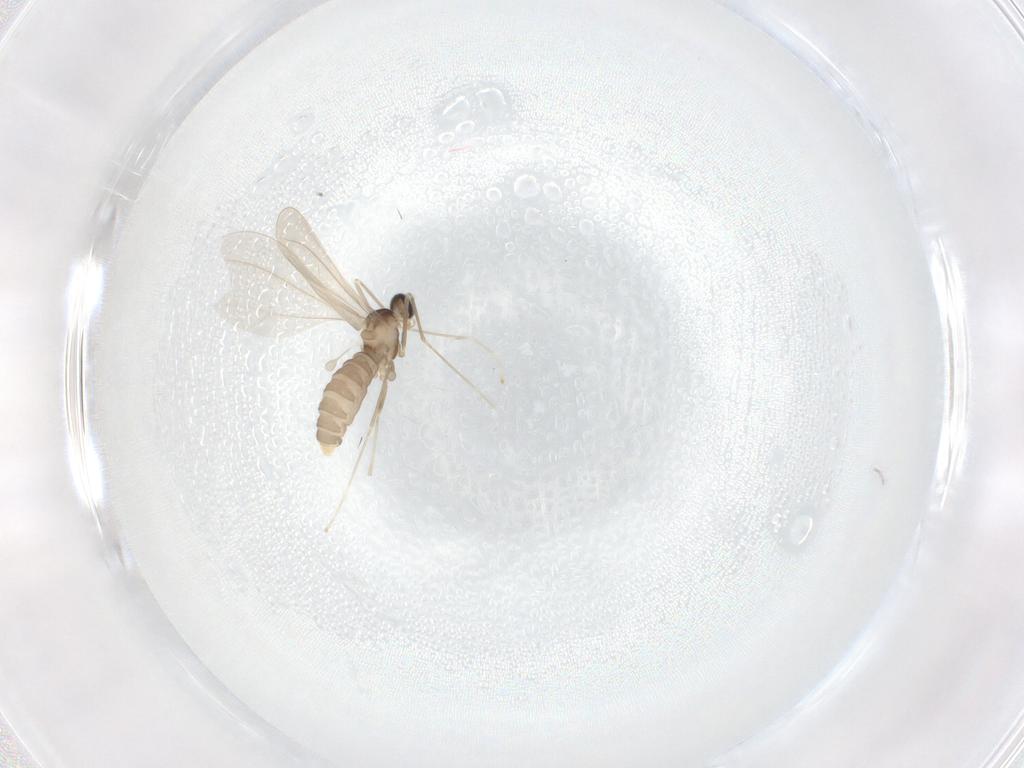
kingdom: Animalia
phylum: Arthropoda
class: Insecta
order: Diptera
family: Cecidomyiidae
